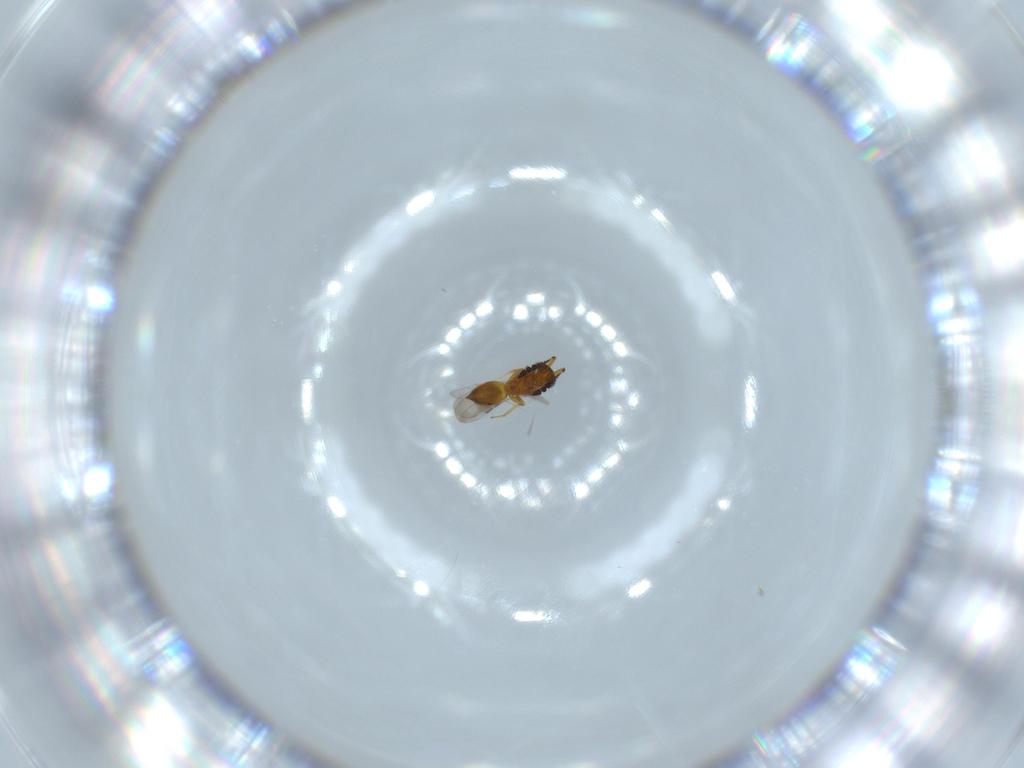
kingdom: Animalia
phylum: Arthropoda
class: Insecta
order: Hymenoptera
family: Ceraphronidae
